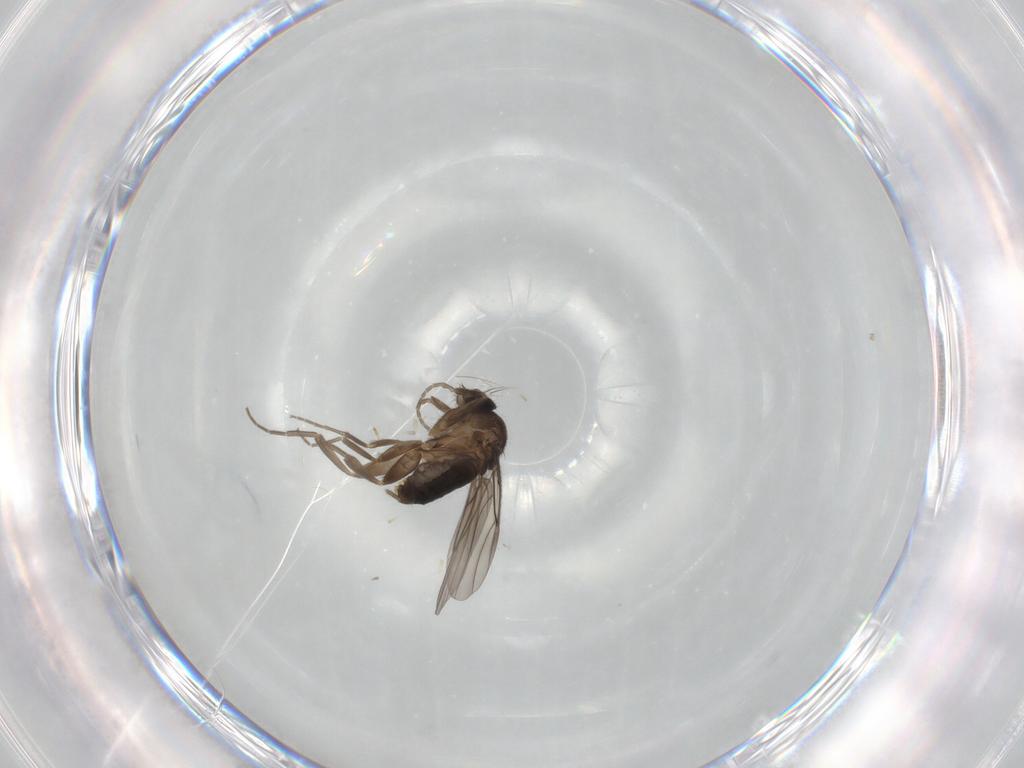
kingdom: Animalia
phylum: Arthropoda
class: Insecta
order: Diptera
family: Phoridae
